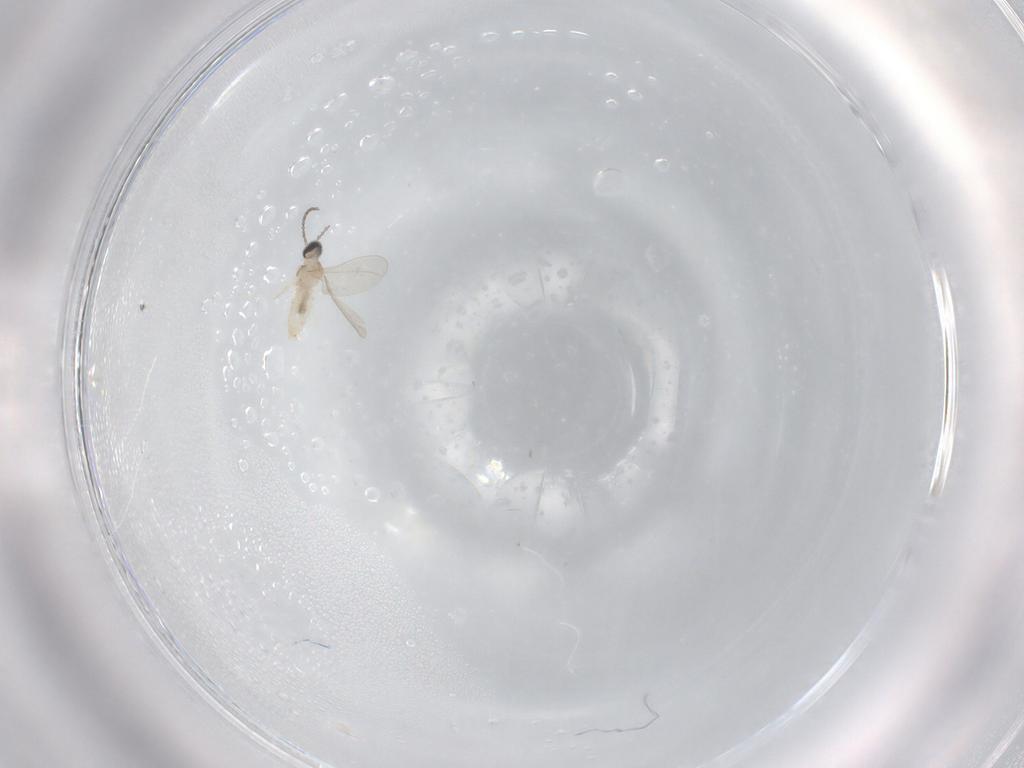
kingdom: Animalia
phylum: Arthropoda
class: Insecta
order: Diptera
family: Cecidomyiidae
